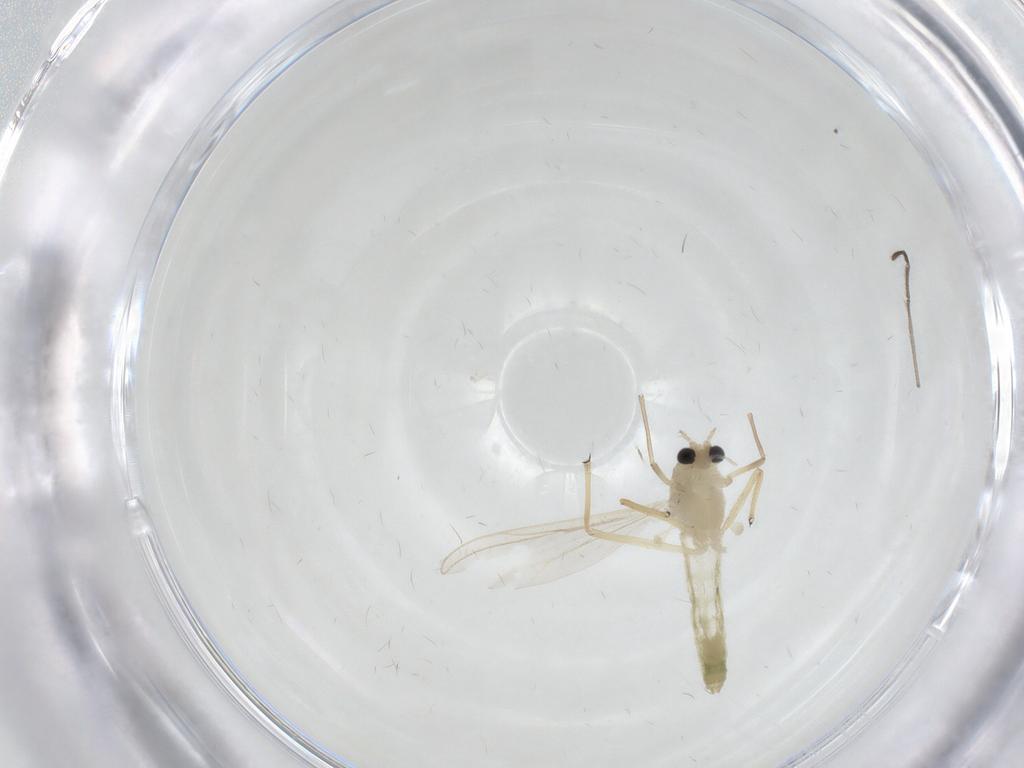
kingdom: Animalia
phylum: Arthropoda
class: Insecta
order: Diptera
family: Chironomidae
